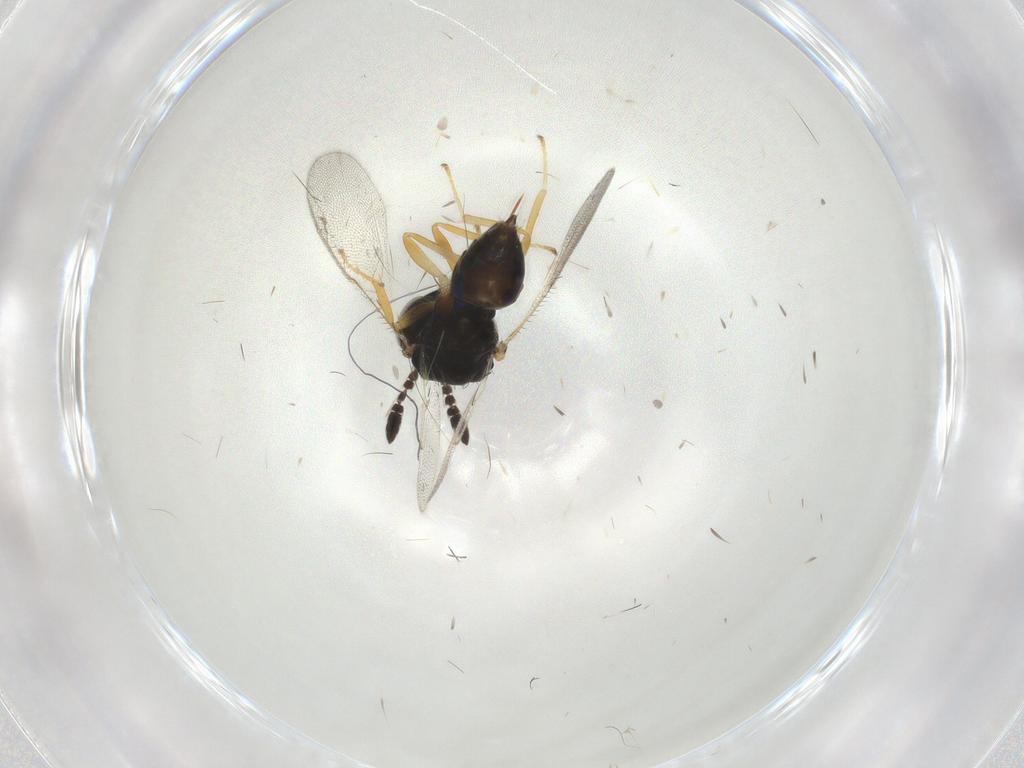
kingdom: Animalia
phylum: Arthropoda
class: Insecta
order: Hymenoptera
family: Pteromalidae
